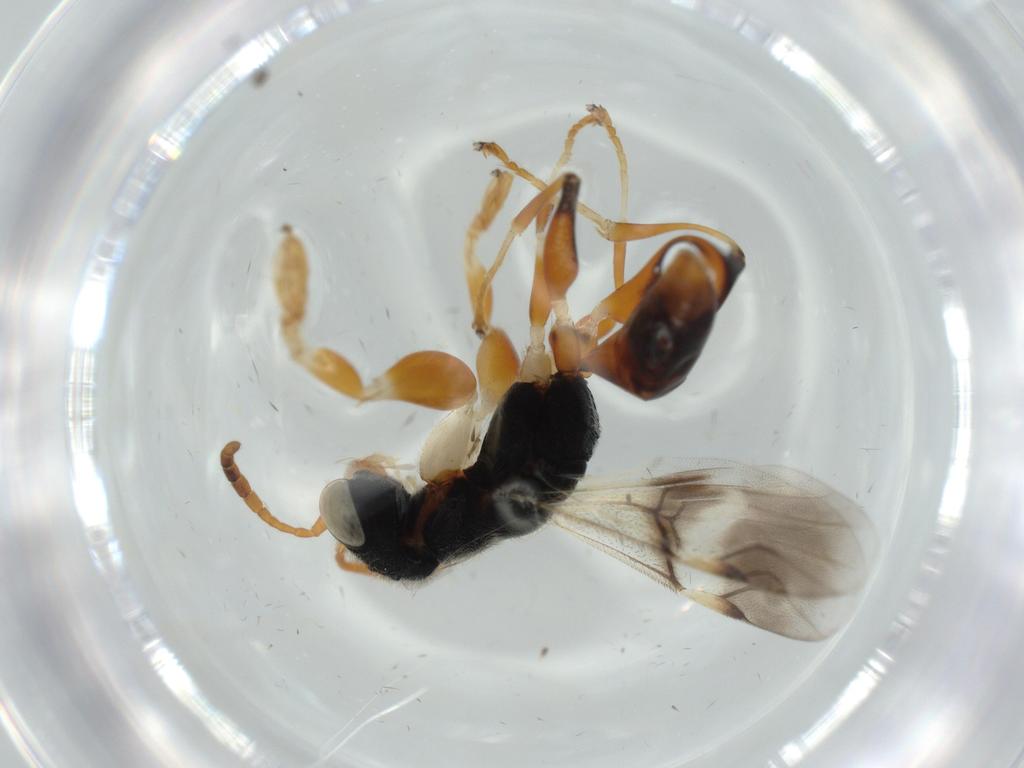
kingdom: Animalia
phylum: Arthropoda
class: Insecta
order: Hymenoptera
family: Dryinidae
